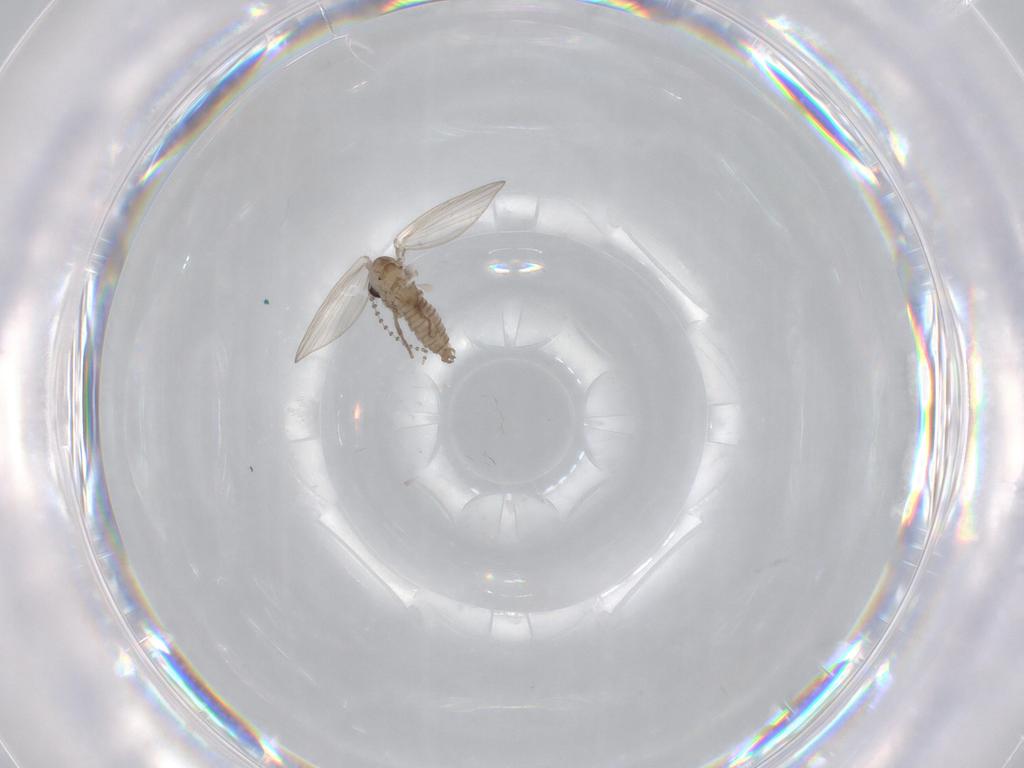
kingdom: Animalia
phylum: Arthropoda
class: Insecta
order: Diptera
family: Psychodidae
